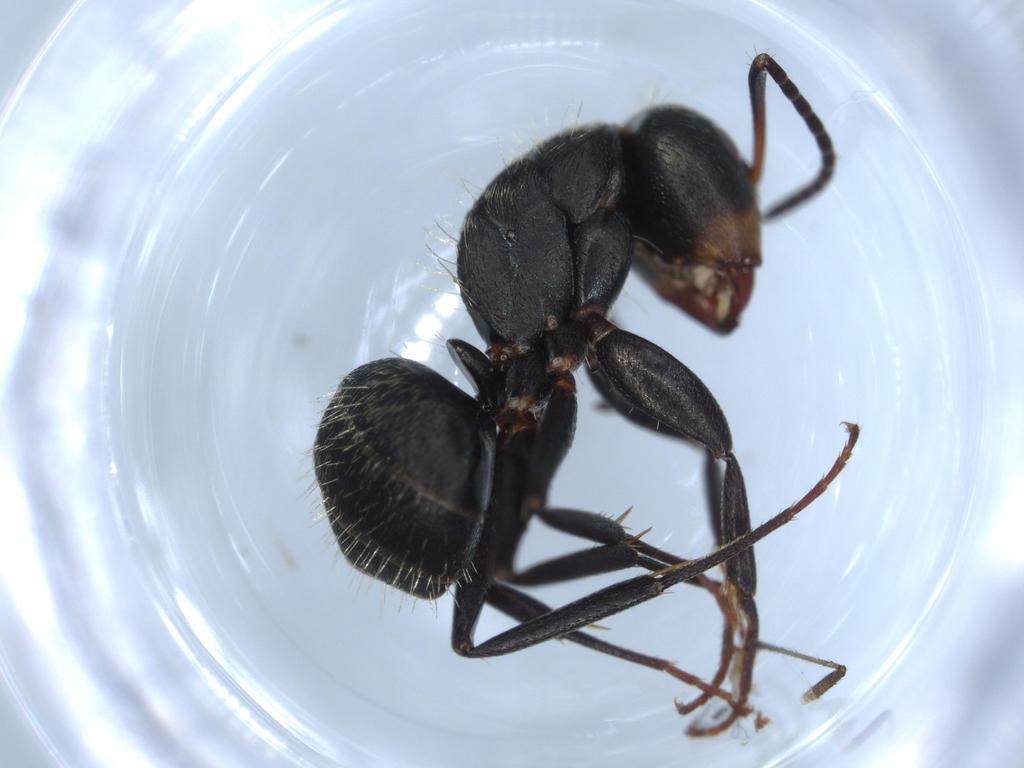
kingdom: Animalia
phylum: Arthropoda
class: Insecta
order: Hymenoptera
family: Formicidae
